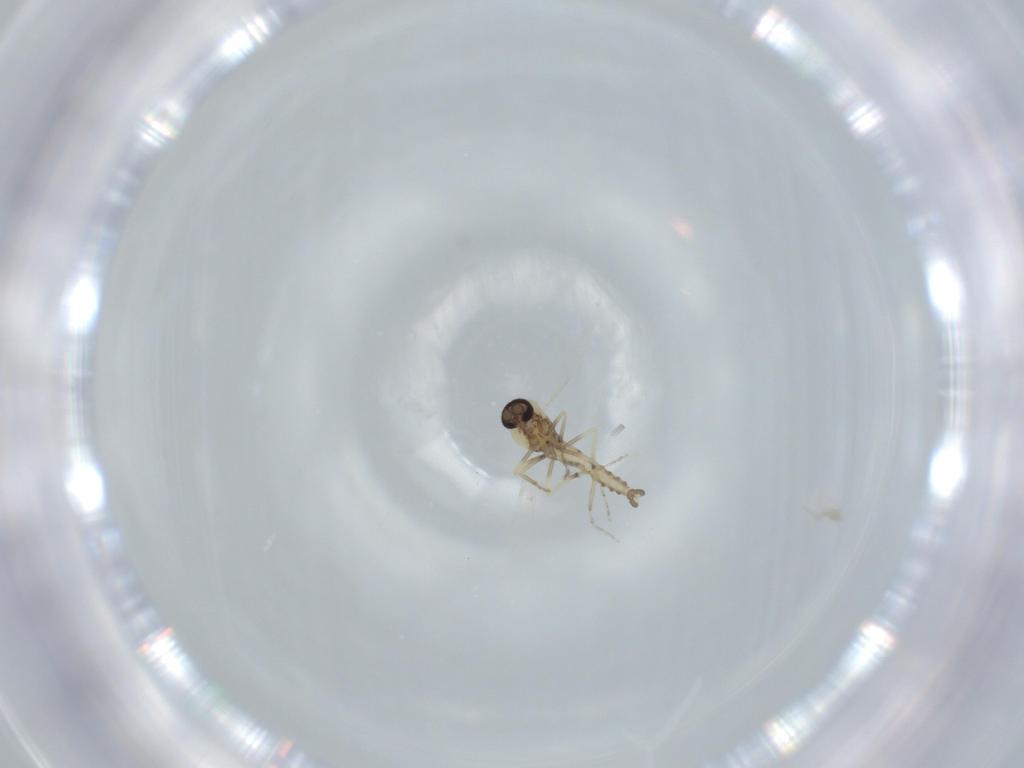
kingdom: Animalia
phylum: Arthropoda
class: Insecta
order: Diptera
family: Ceratopogonidae
